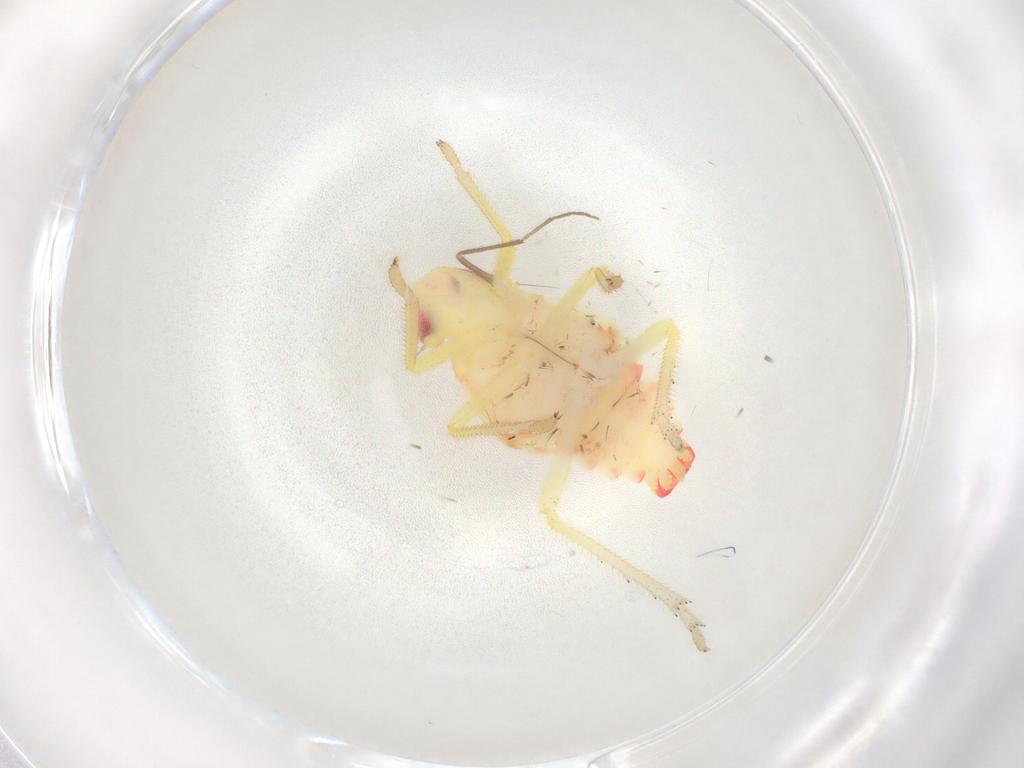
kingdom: Animalia
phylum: Arthropoda
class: Insecta
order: Hemiptera
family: Tropiduchidae
